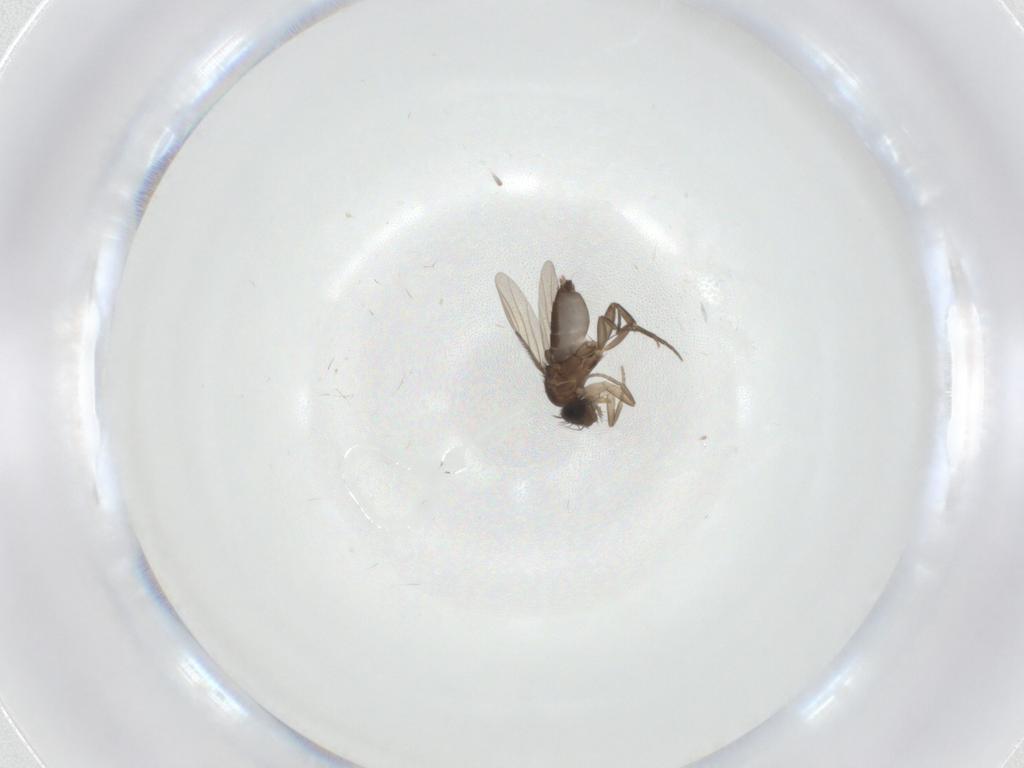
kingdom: Animalia
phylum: Arthropoda
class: Insecta
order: Diptera
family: Phoridae
